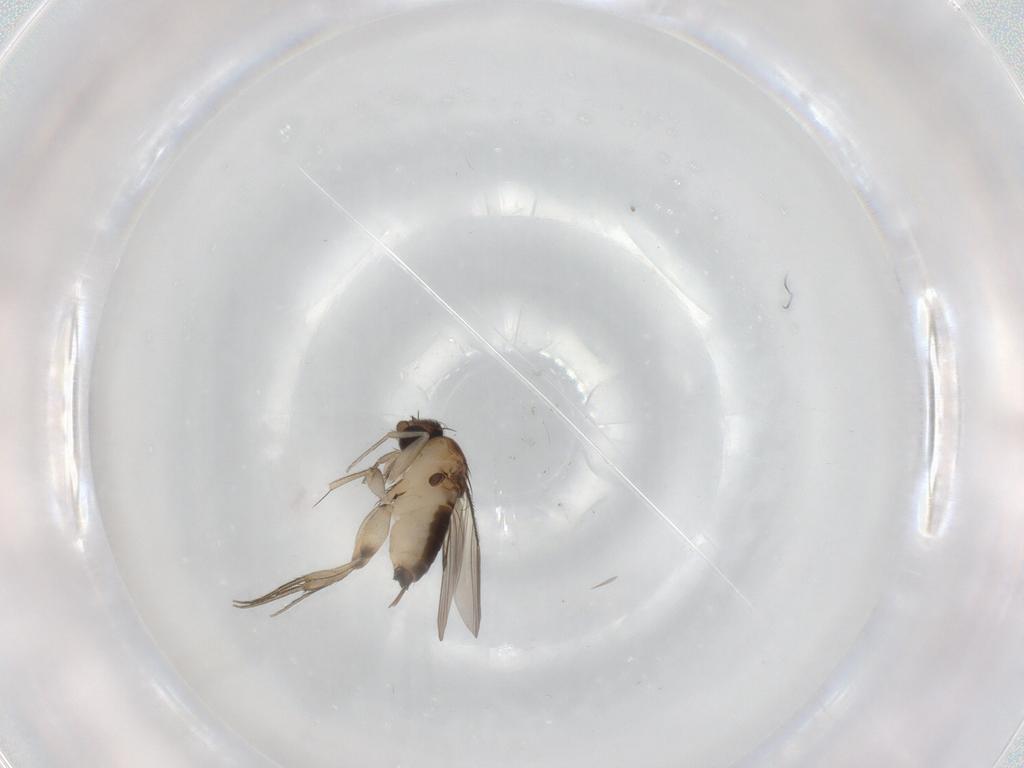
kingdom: Animalia
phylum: Arthropoda
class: Insecta
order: Diptera
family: Phoridae
